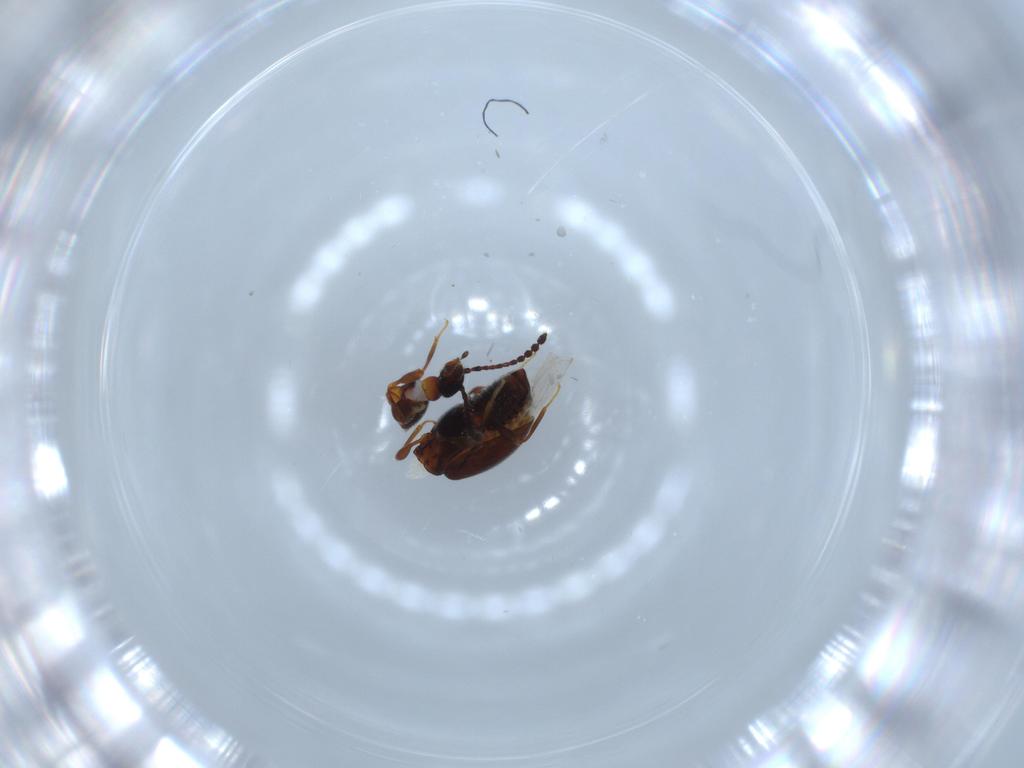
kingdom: Animalia
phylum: Arthropoda
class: Insecta
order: Coleoptera
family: Staphylinidae
